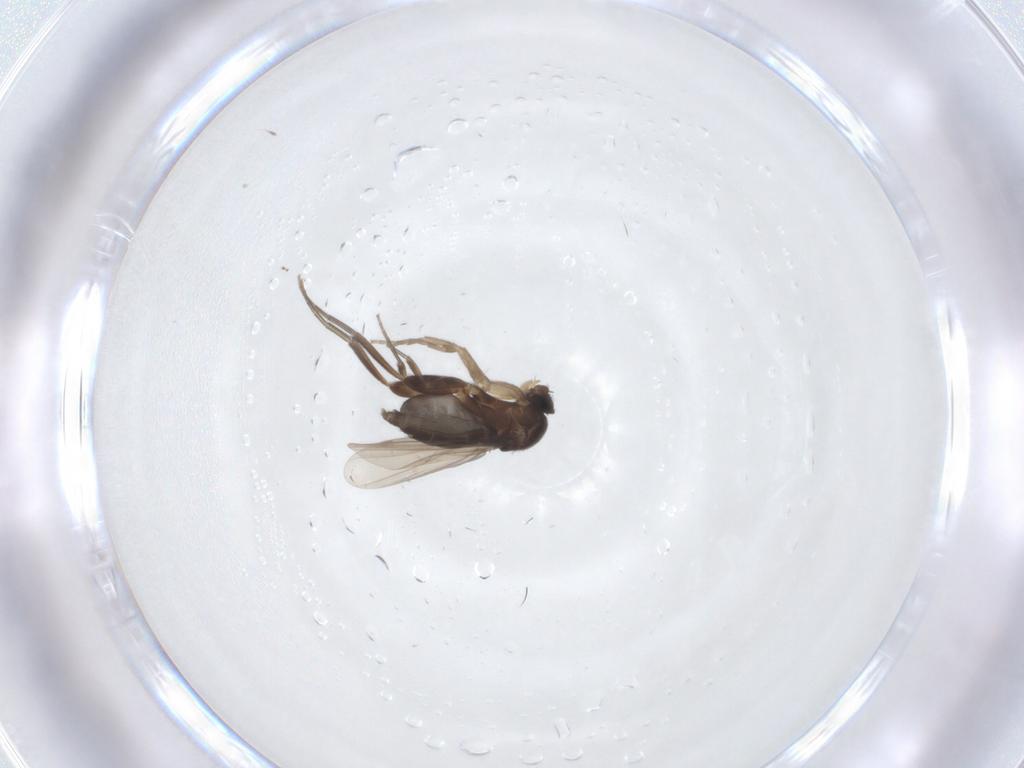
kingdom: Animalia
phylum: Arthropoda
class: Insecta
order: Diptera
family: Phoridae
